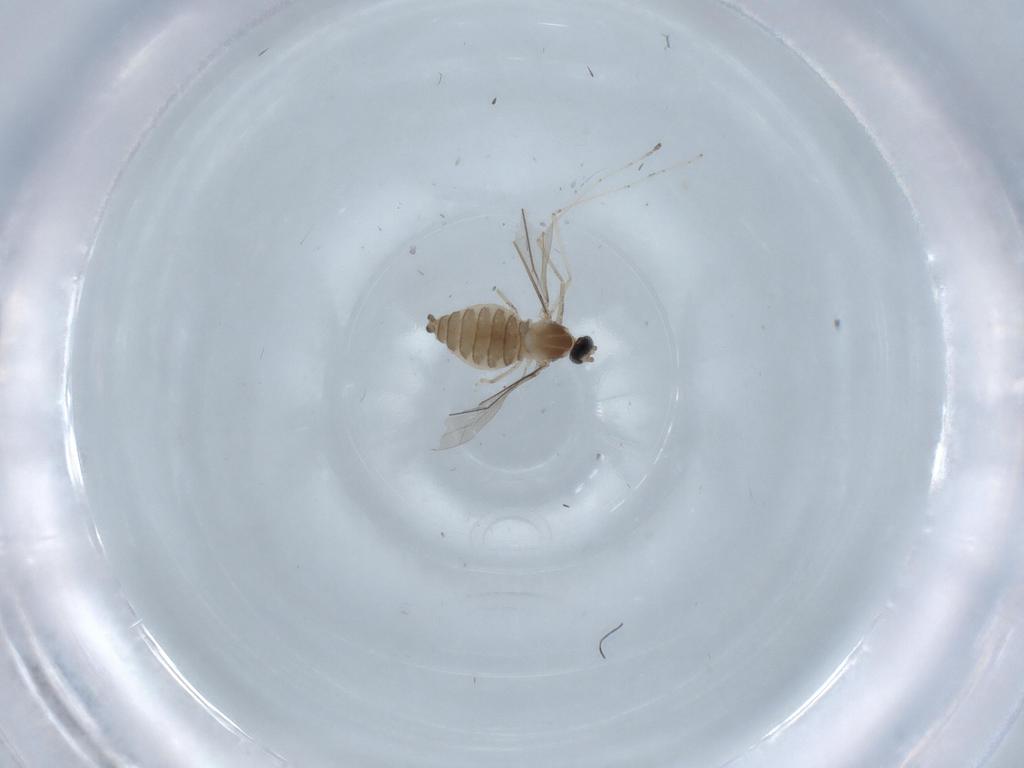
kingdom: Animalia
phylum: Arthropoda
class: Insecta
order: Diptera
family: Cecidomyiidae
